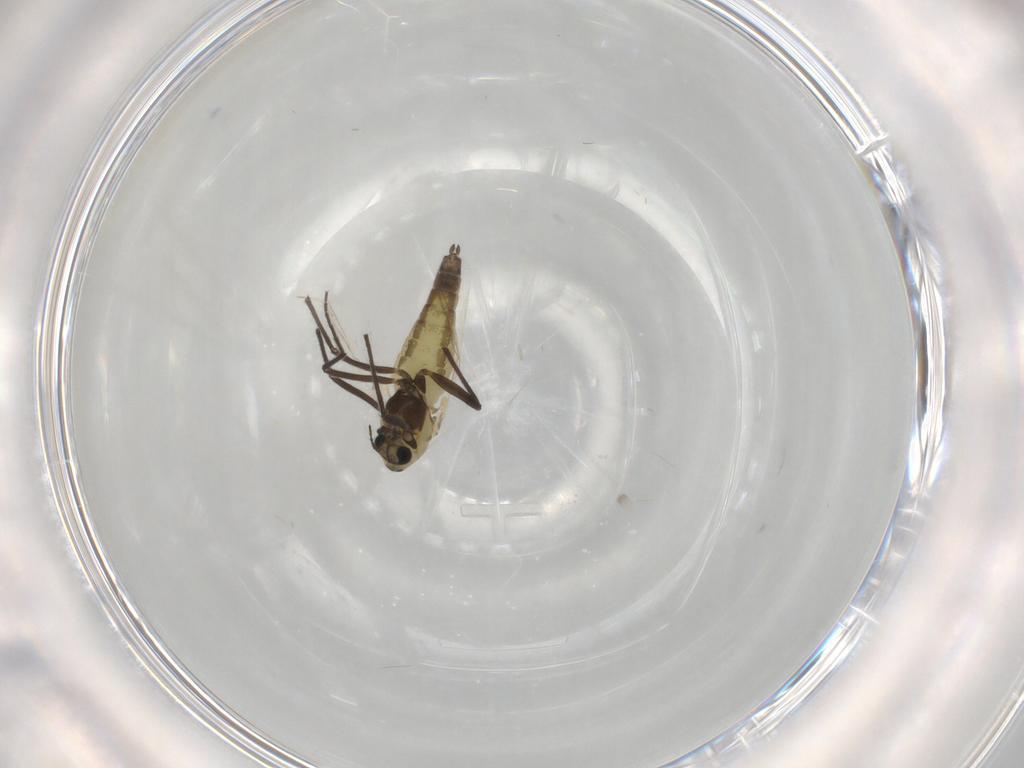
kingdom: Animalia
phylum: Arthropoda
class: Insecta
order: Diptera
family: Chironomidae
